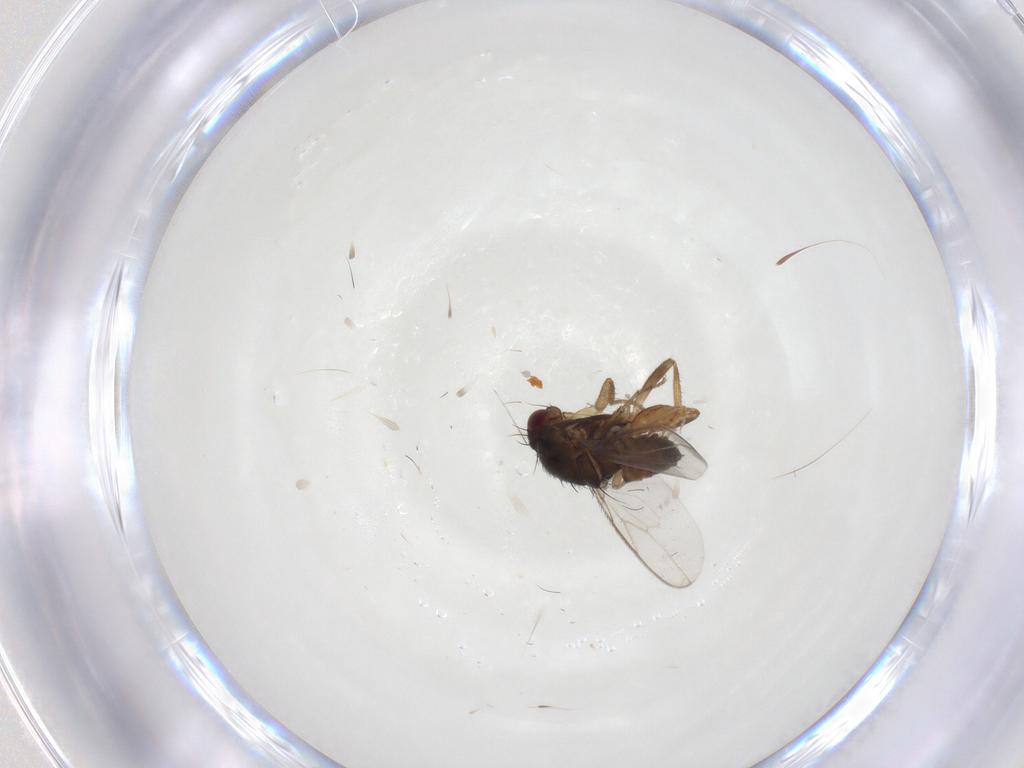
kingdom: Animalia
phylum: Arthropoda
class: Insecta
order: Diptera
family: Sphaeroceridae
